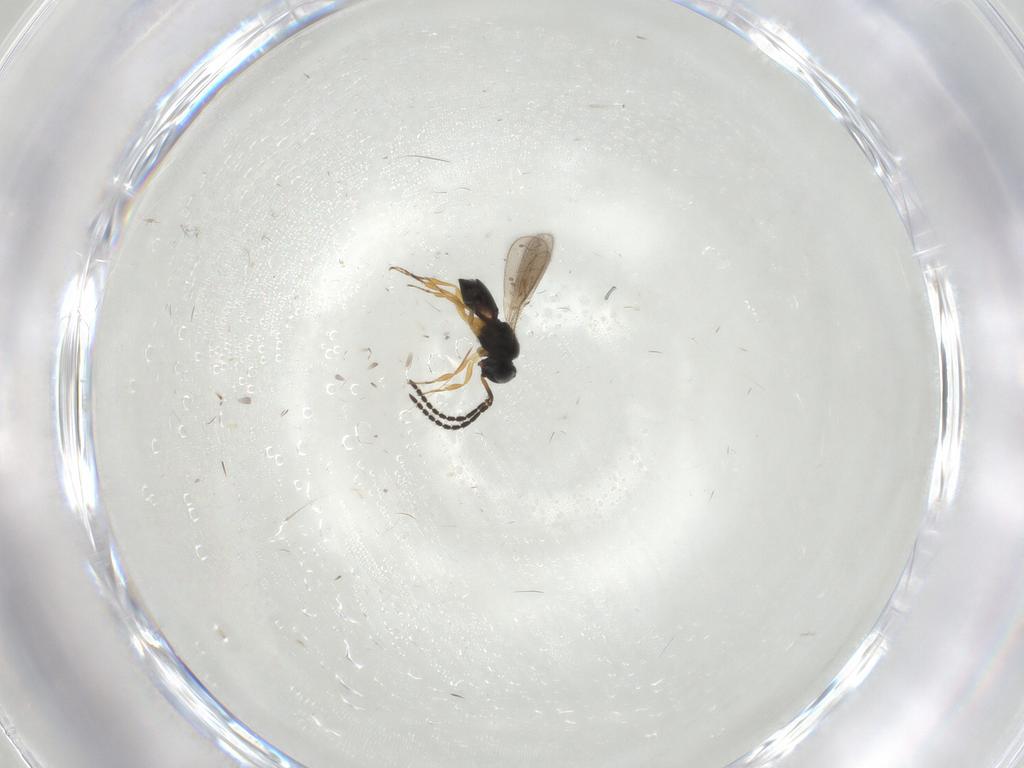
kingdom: Animalia
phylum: Arthropoda
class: Insecta
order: Hymenoptera
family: Scelionidae
